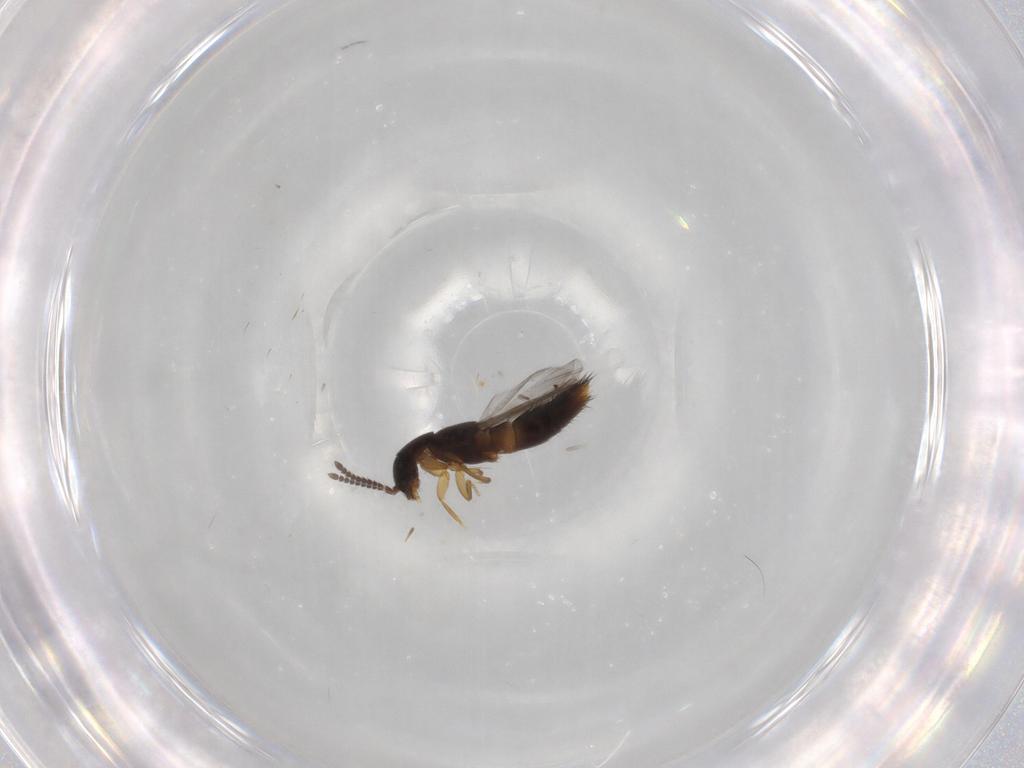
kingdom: Animalia
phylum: Arthropoda
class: Insecta
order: Coleoptera
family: Staphylinidae
